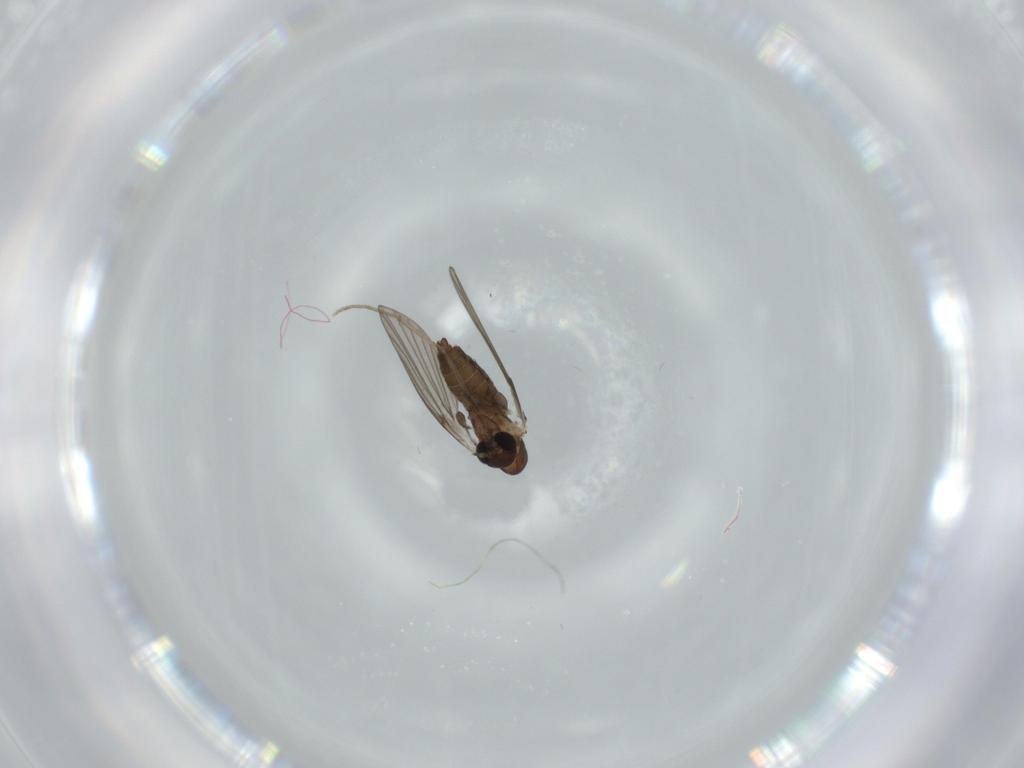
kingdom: Animalia
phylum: Arthropoda
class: Insecta
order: Diptera
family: Psychodidae
